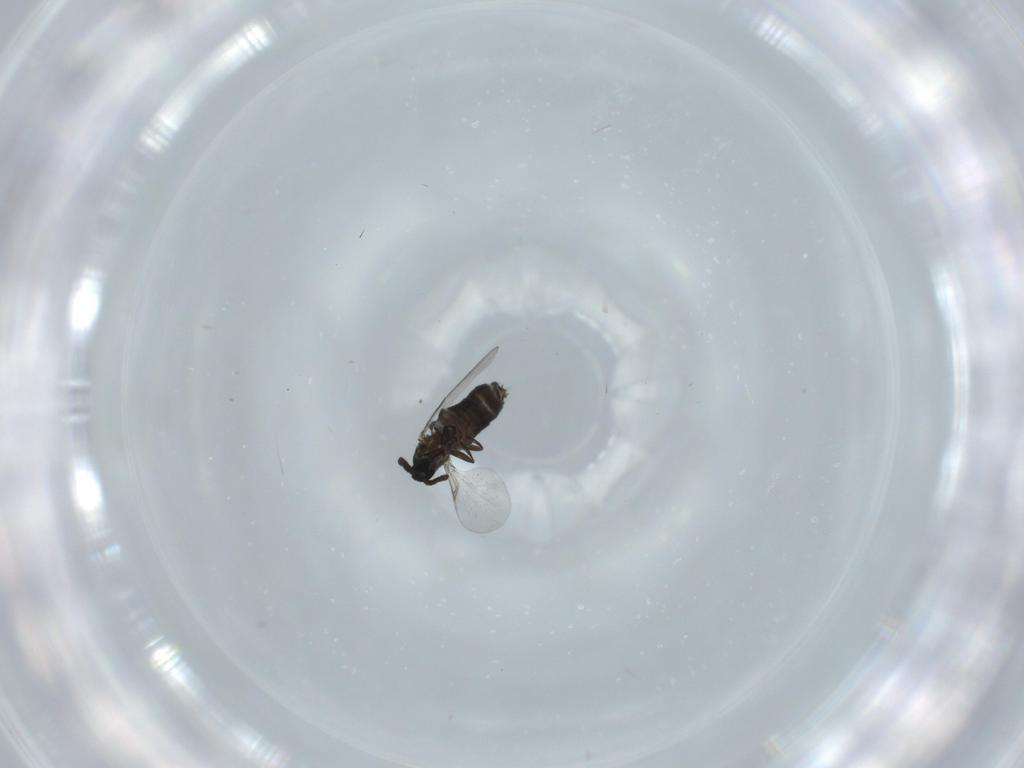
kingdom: Animalia
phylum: Arthropoda
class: Insecta
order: Diptera
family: Scatopsidae
